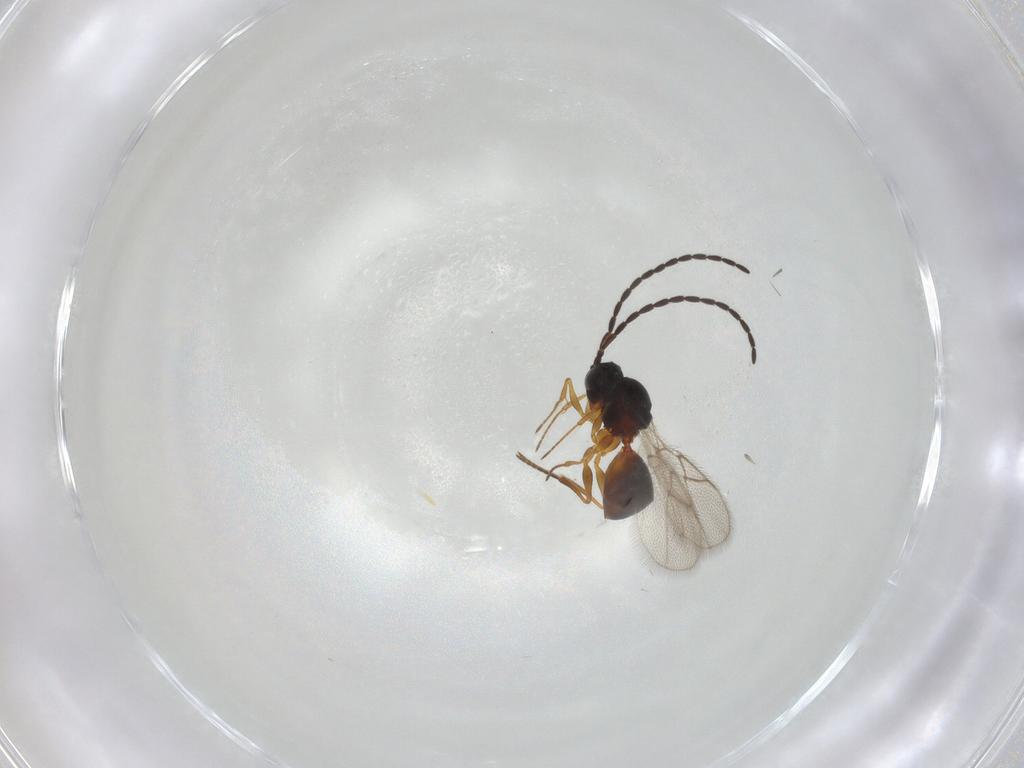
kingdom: Animalia
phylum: Arthropoda
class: Insecta
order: Hymenoptera
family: Figitidae
